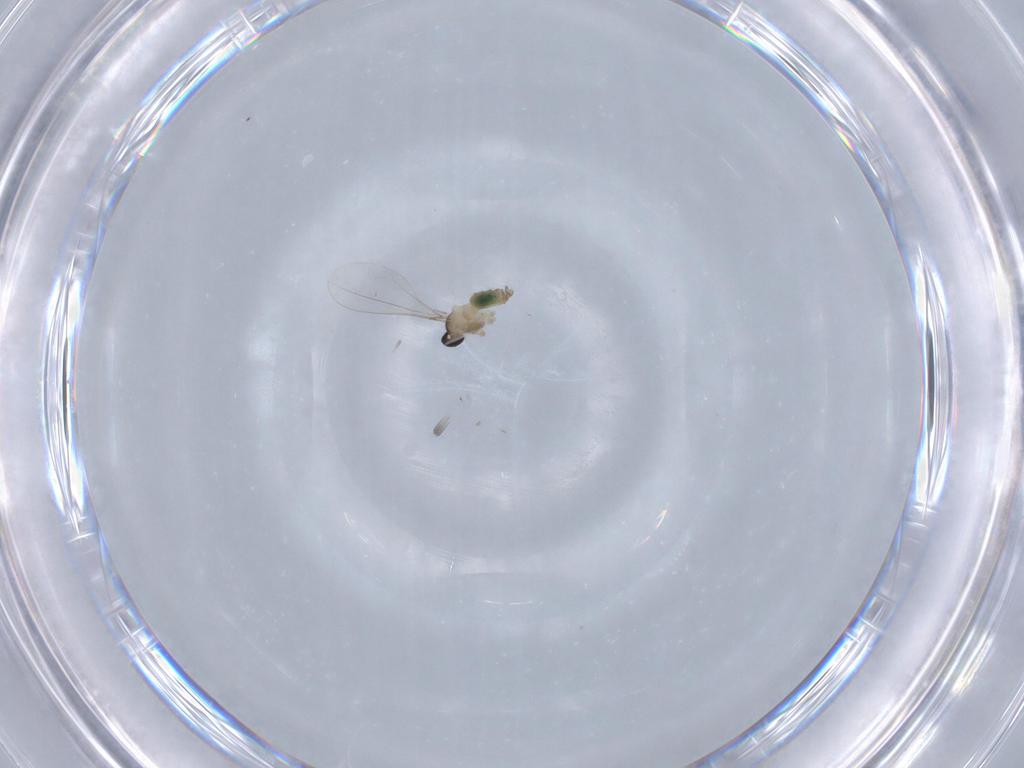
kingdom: Animalia
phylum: Arthropoda
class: Insecta
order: Diptera
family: Cecidomyiidae
